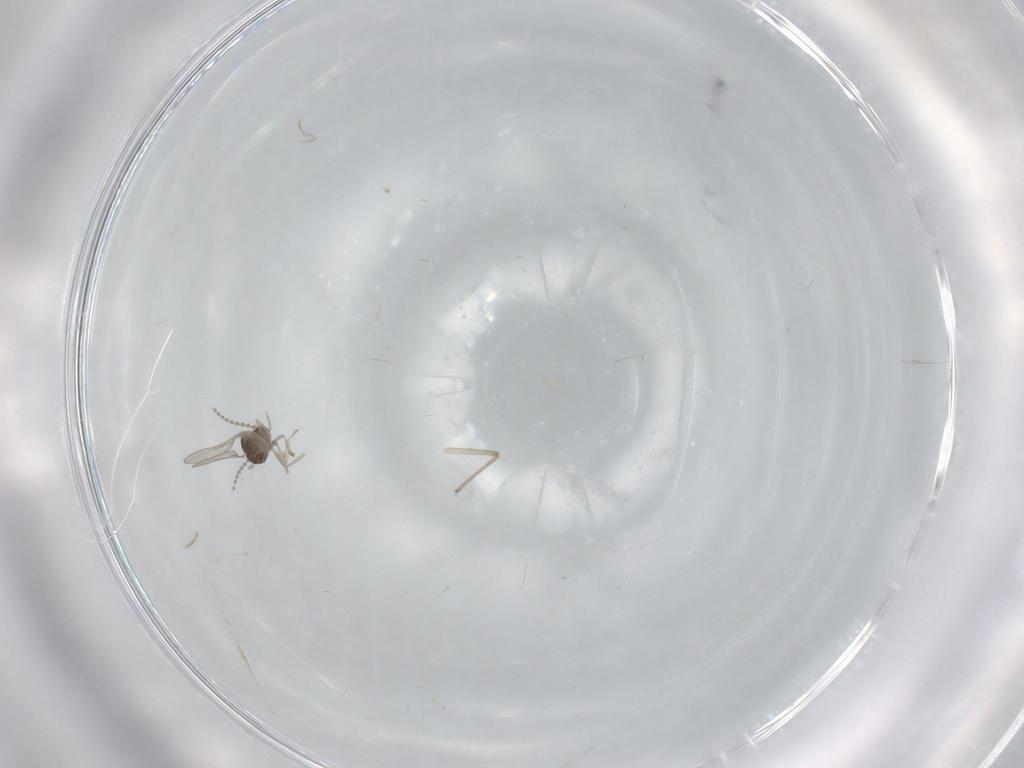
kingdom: Animalia
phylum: Arthropoda
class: Insecta
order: Diptera
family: Cecidomyiidae
